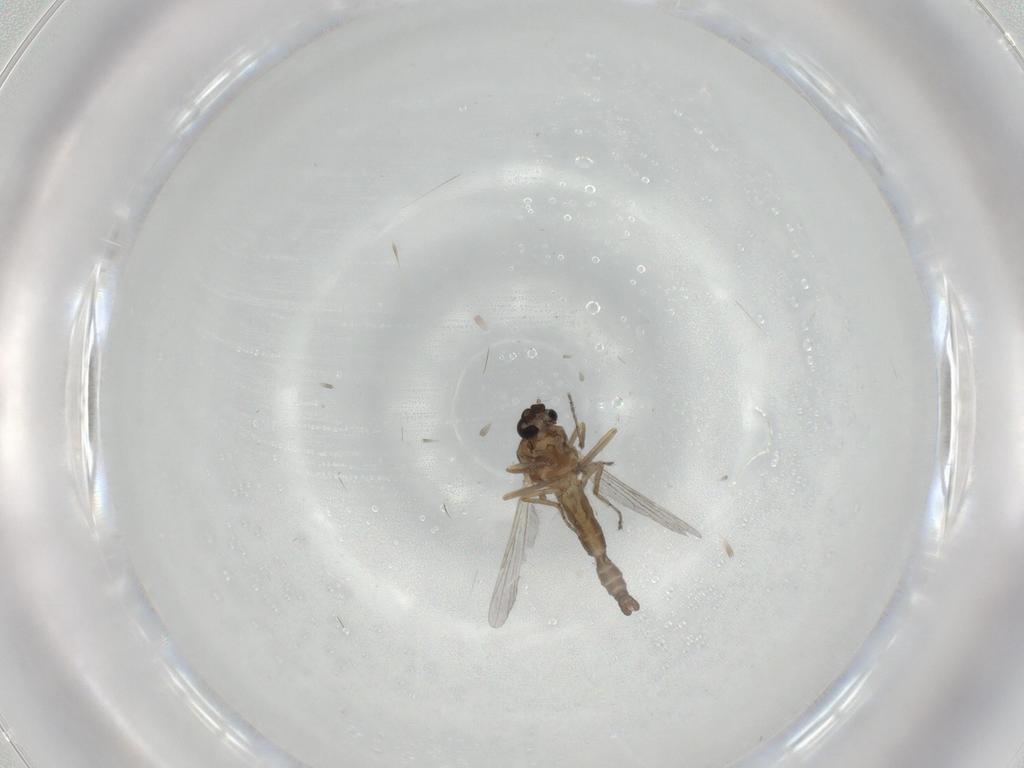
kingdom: Animalia
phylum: Arthropoda
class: Insecta
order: Diptera
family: Ceratopogonidae
